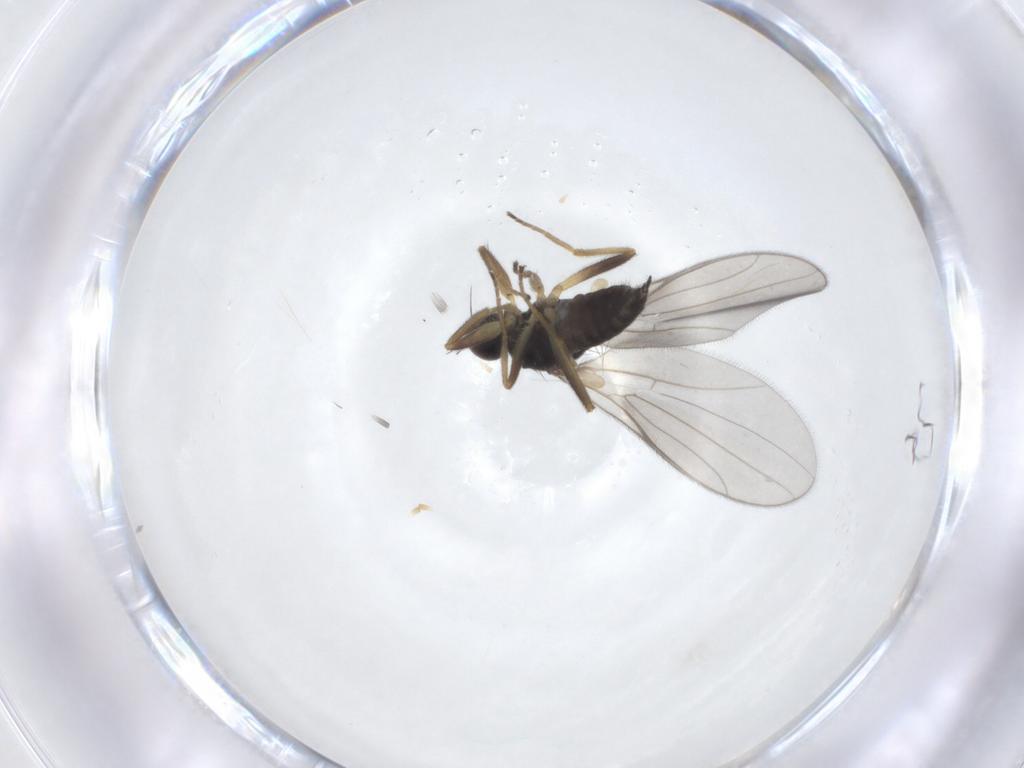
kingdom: Animalia
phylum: Arthropoda
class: Insecta
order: Diptera
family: Hybotidae
